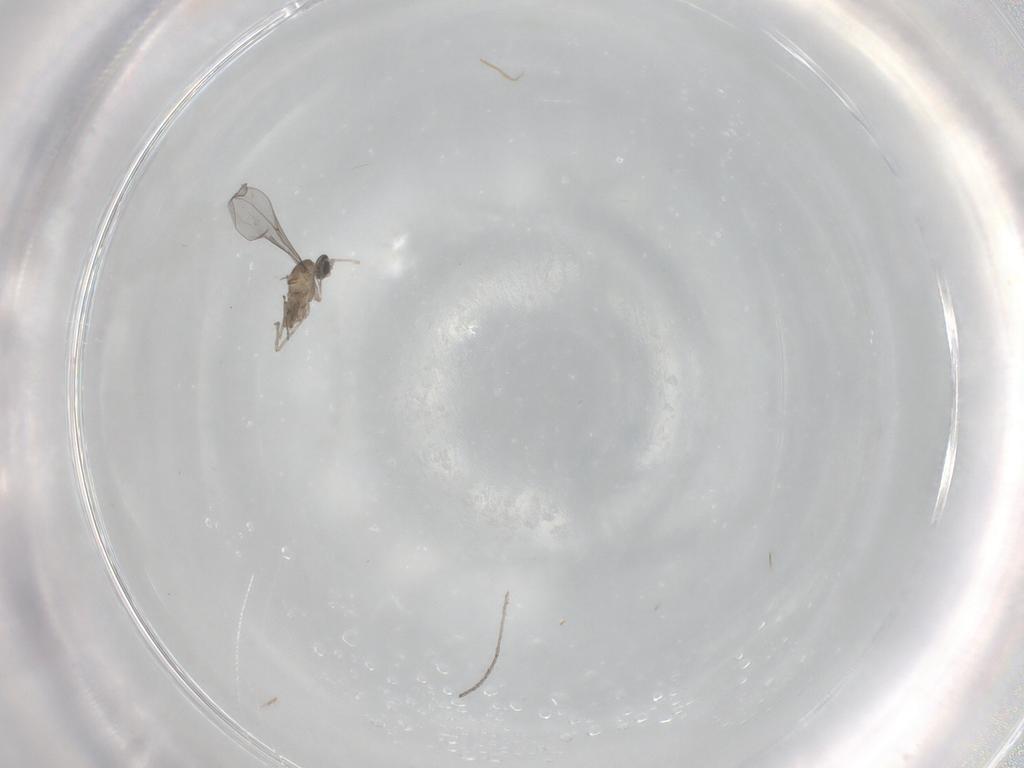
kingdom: Animalia
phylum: Arthropoda
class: Insecta
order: Diptera
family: Cecidomyiidae
